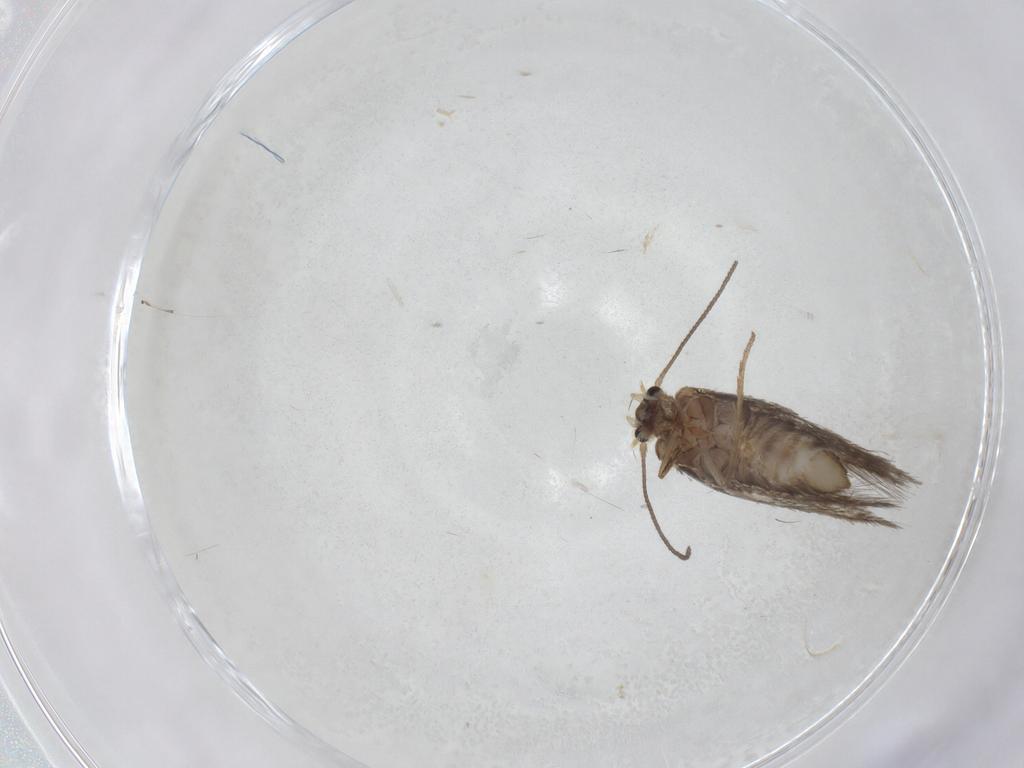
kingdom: Animalia
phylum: Arthropoda
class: Insecta
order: Lepidoptera
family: Nepticulidae
